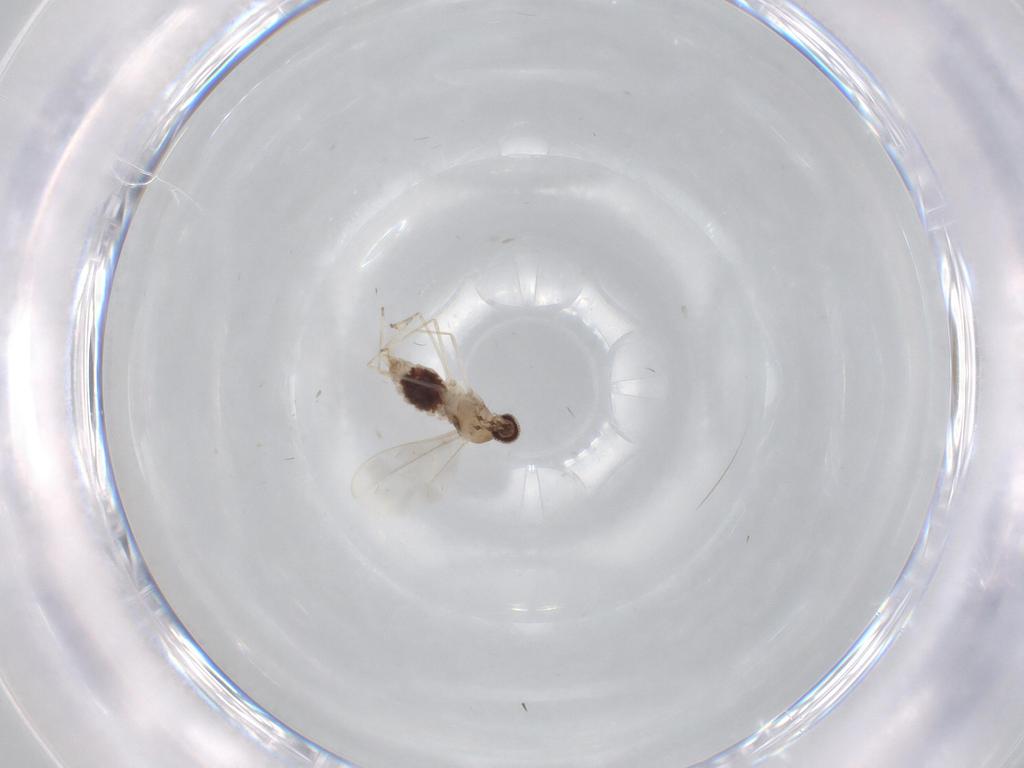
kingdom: Animalia
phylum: Arthropoda
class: Insecta
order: Diptera
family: Cecidomyiidae
